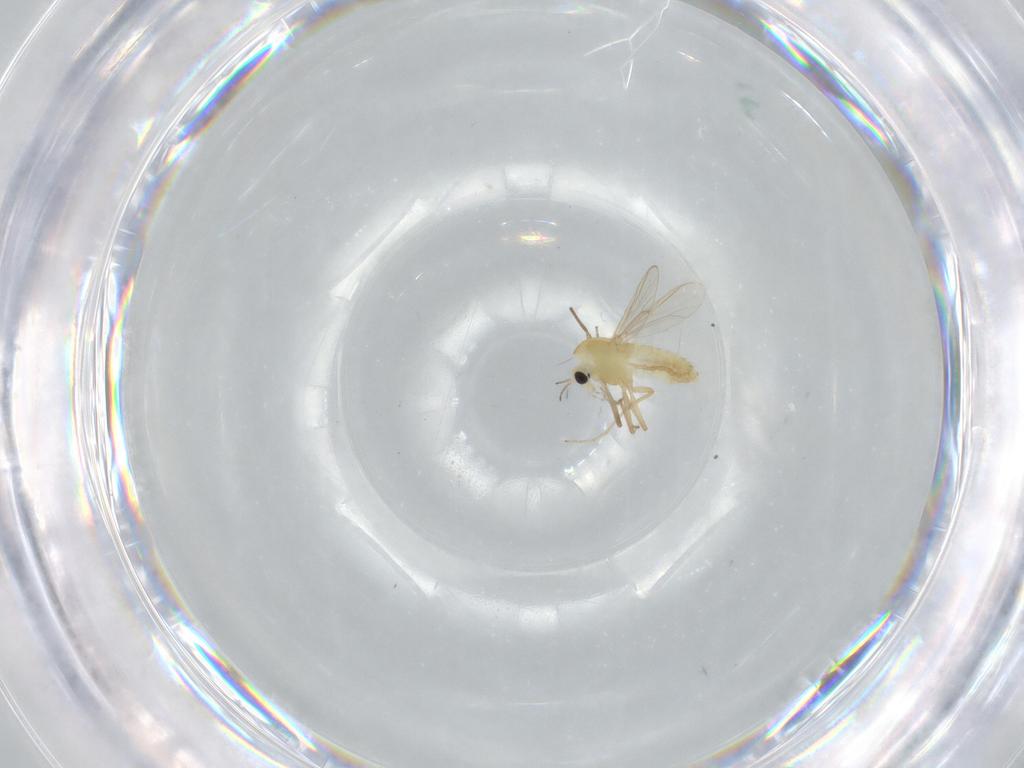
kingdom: Animalia
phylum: Arthropoda
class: Insecta
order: Diptera
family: Chironomidae
